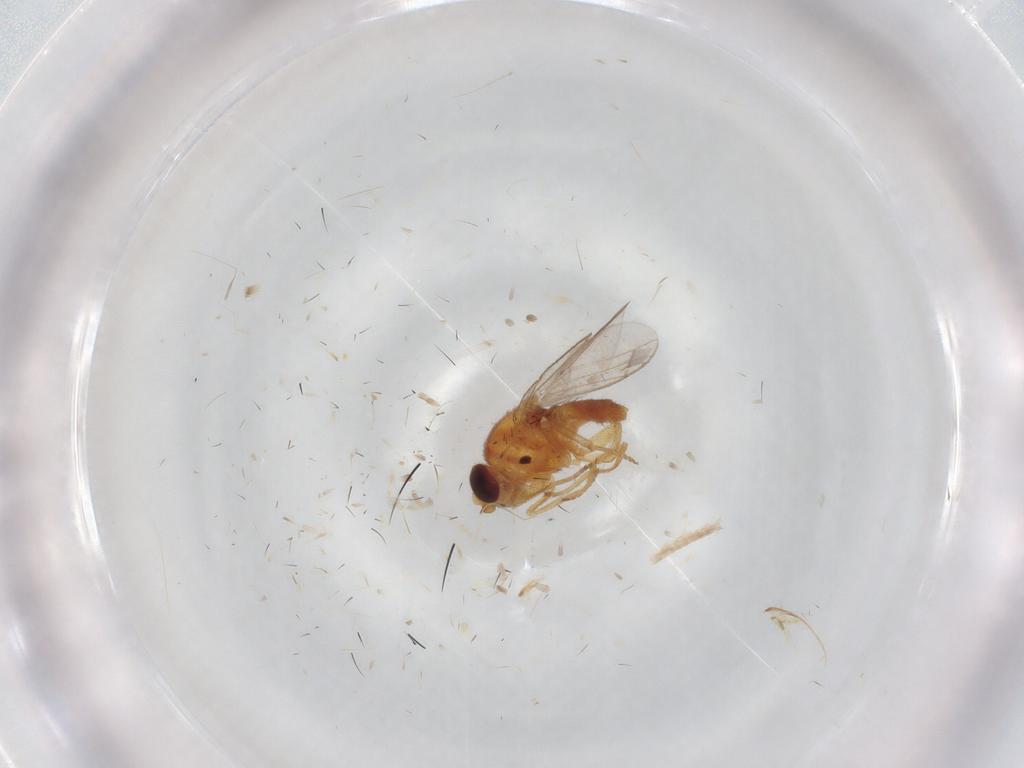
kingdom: Animalia
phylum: Arthropoda
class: Insecta
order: Diptera
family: Chloropidae
